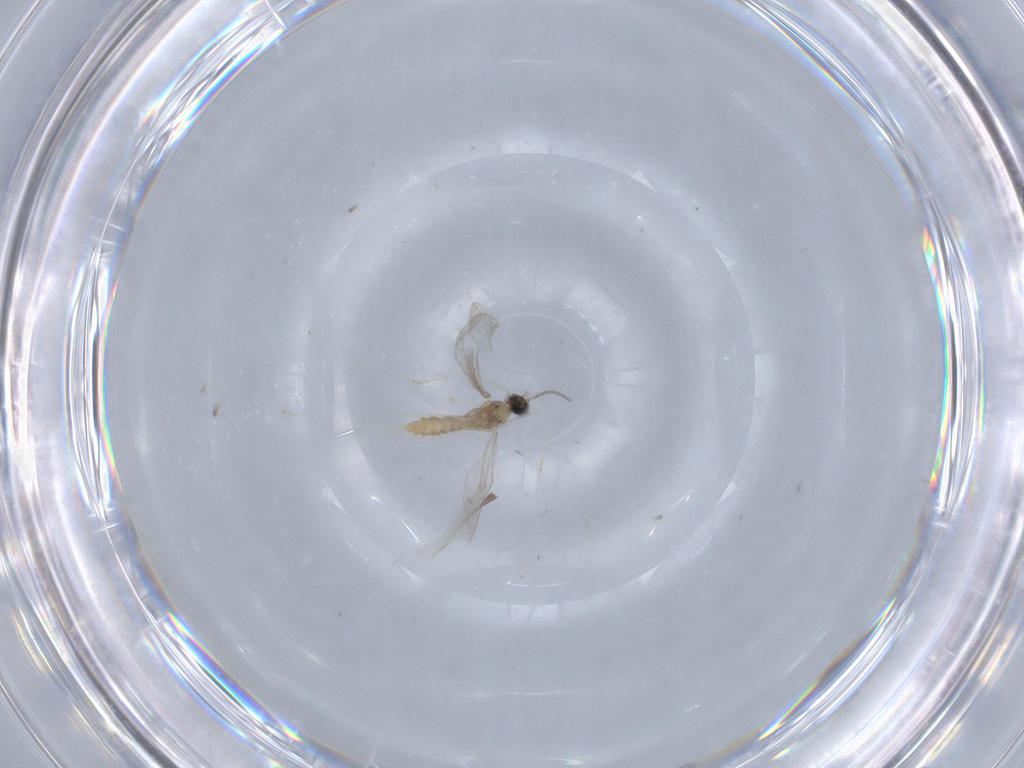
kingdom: Animalia
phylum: Arthropoda
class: Insecta
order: Diptera
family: Cecidomyiidae
